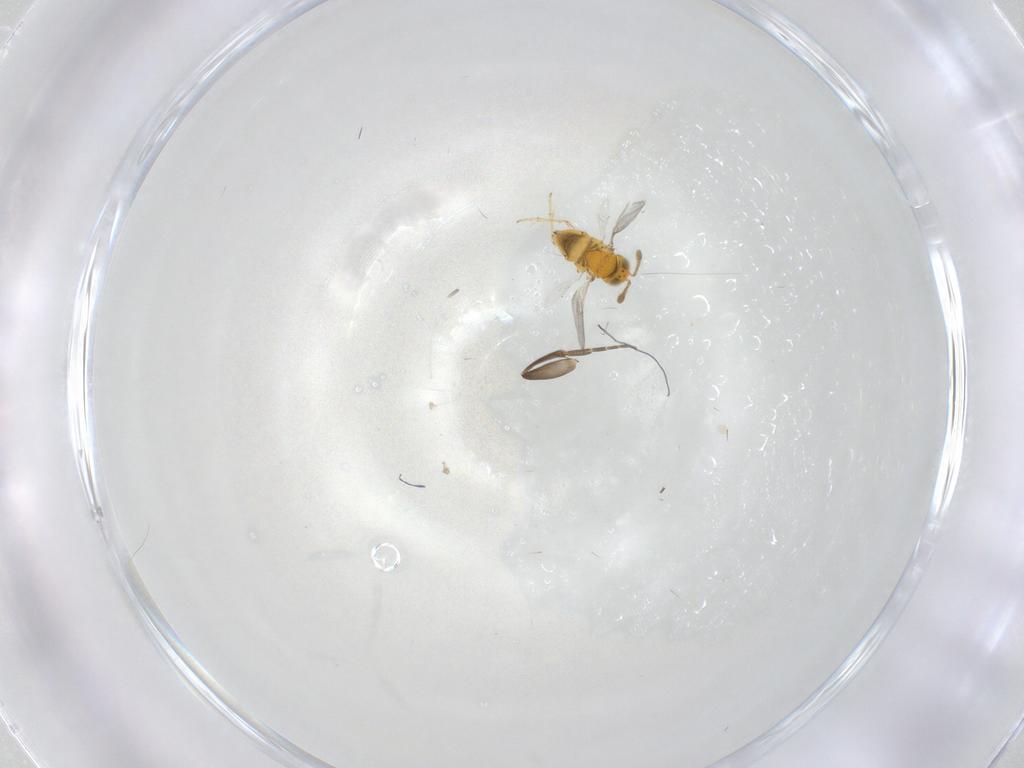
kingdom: Animalia
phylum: Arthropoda
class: Insecta
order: Hymenoptera
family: Encyrtidae
